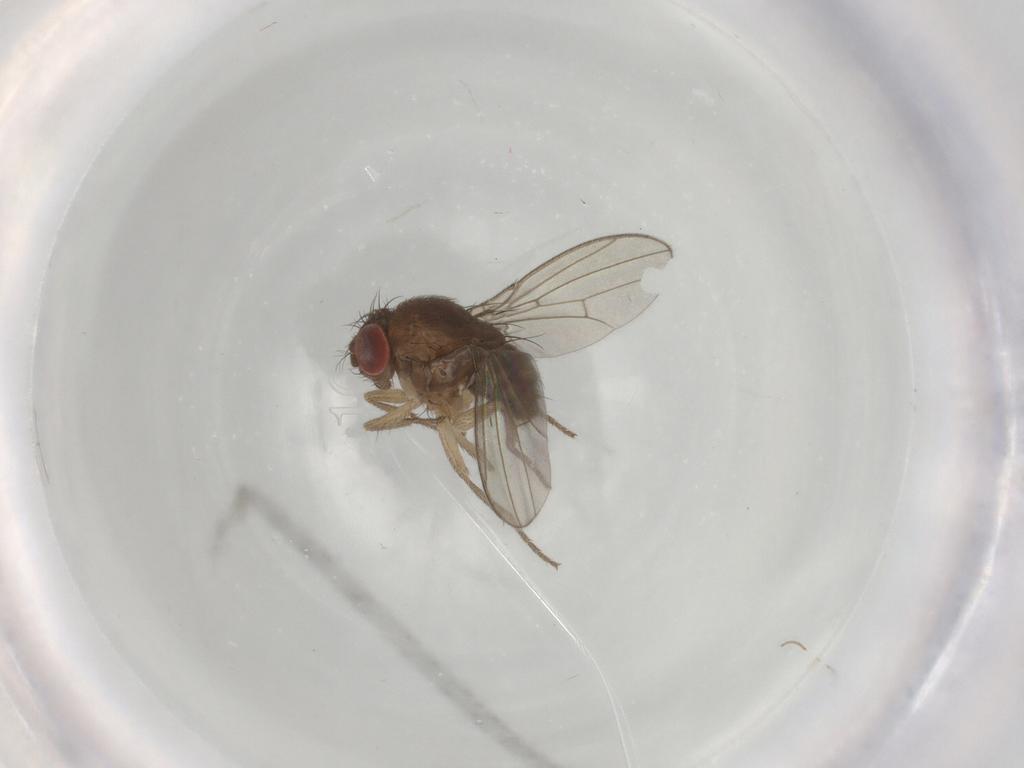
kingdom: Animalia
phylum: Arthropoda
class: Insecta
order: Diptera
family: Drosophilidae
